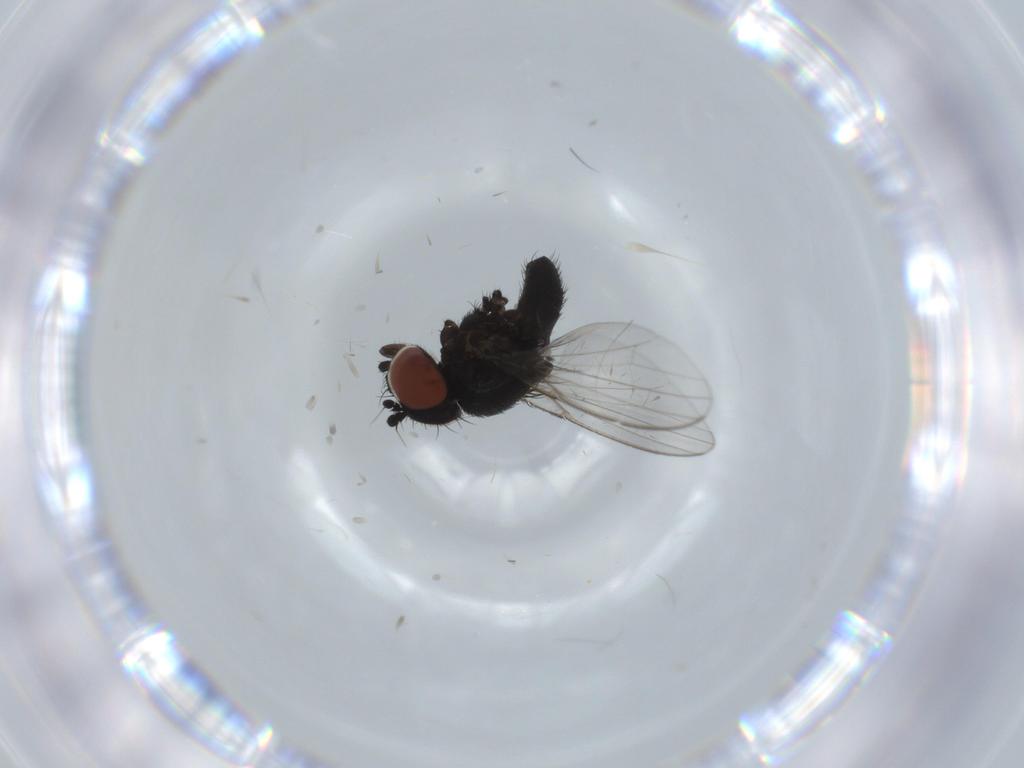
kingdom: Animalia
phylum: Arthropoda
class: Insecta
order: Diptera
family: Milichiidae
